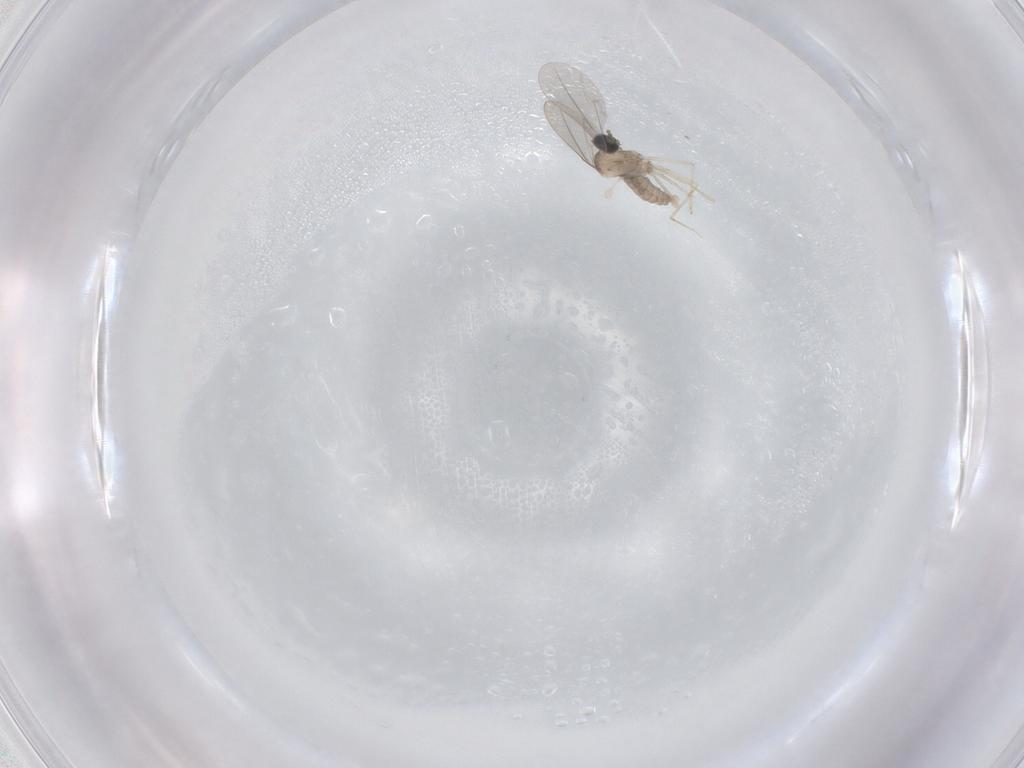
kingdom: Animalia
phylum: Arthropoda
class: Insecta
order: Diptera
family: Cecidomyiidae
